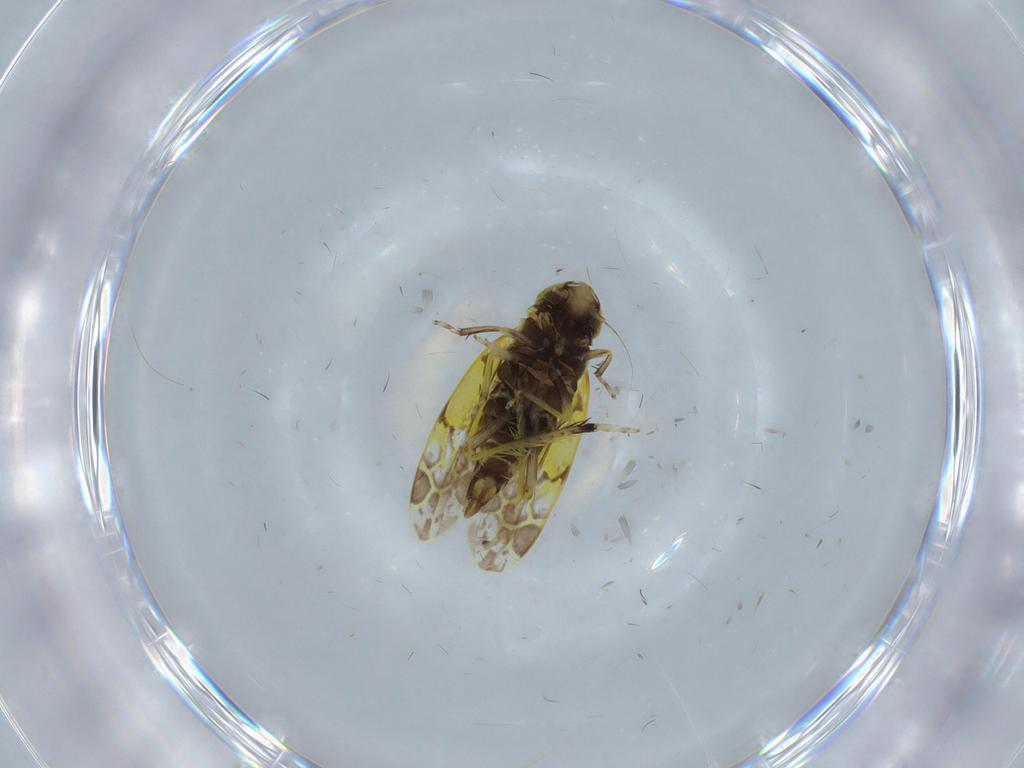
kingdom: Animalia
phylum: Arthropoda
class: Insecta
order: Hemiptera
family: Cicadellidae
